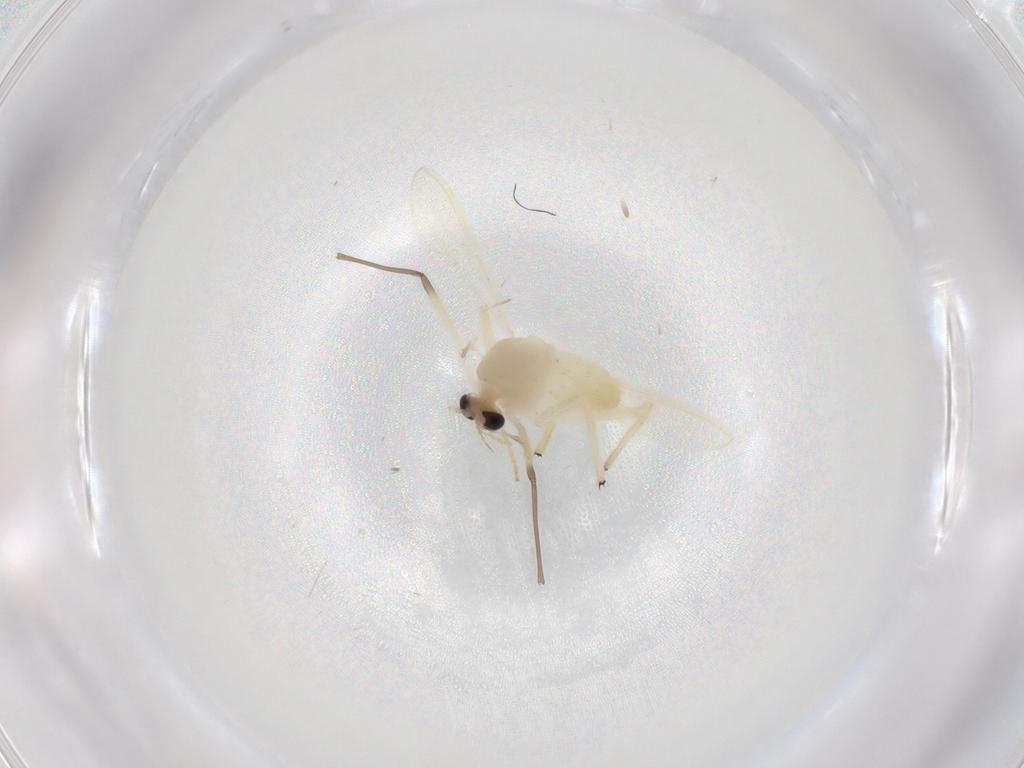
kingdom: Animalia
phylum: Arthropoda
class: Insecta
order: Diptera
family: Chironomidae
